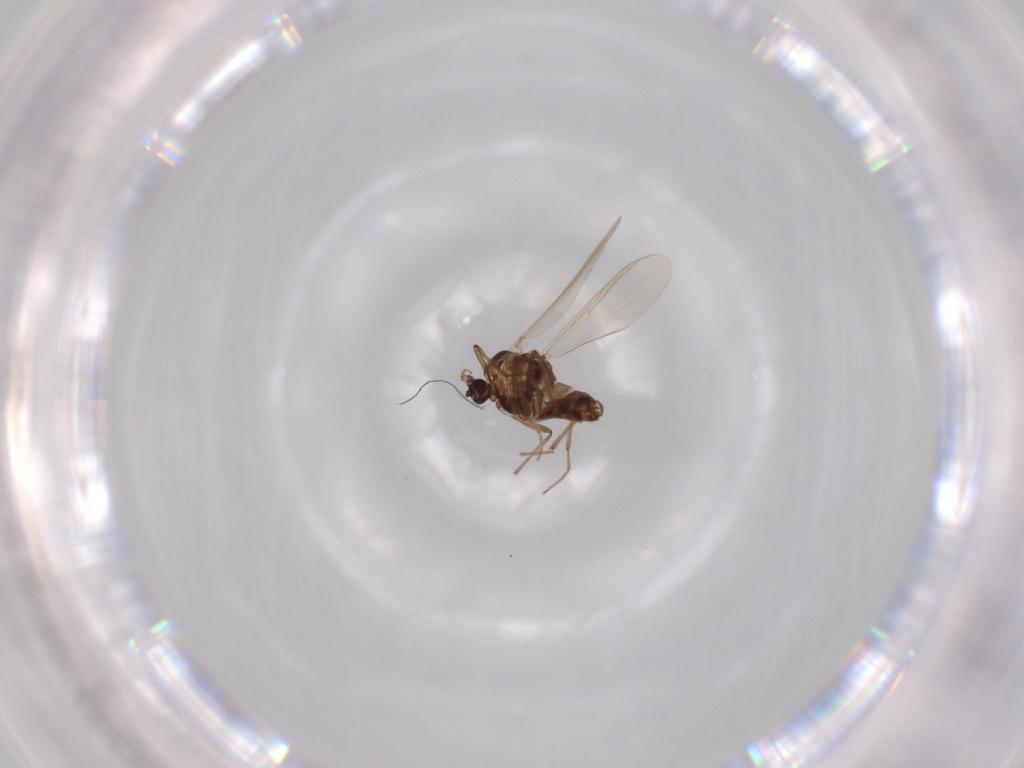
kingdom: Animalia
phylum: Arthropoda
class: Insecta
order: Diptera
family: Chironomidae
